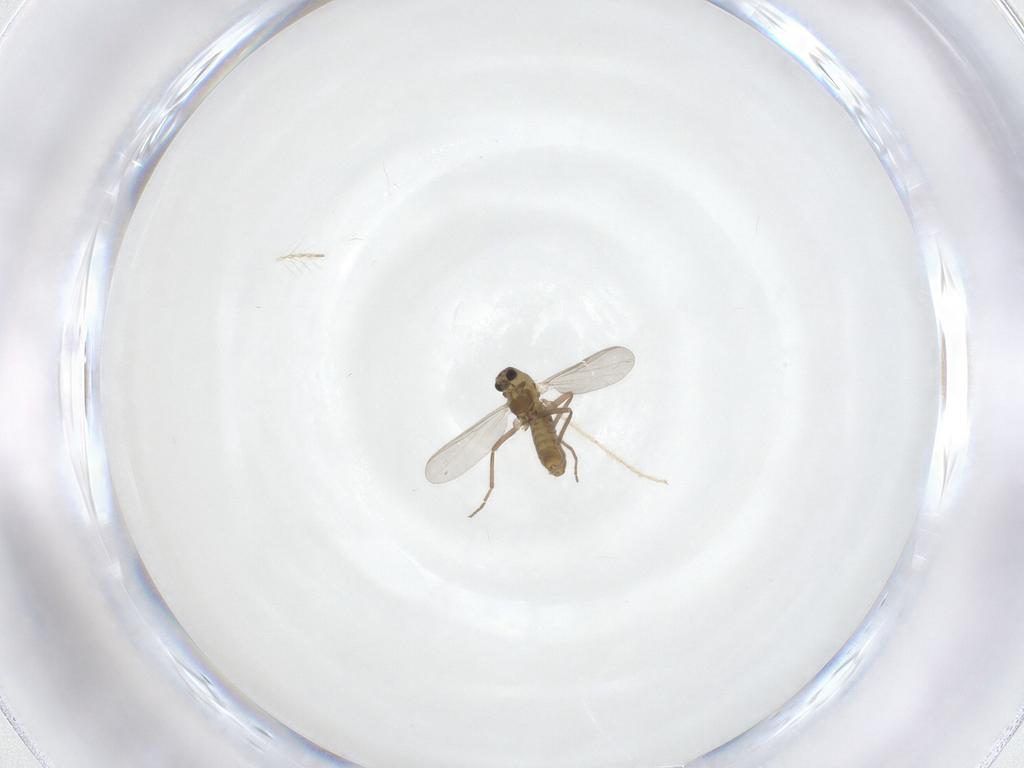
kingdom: Animalia
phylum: Arthropoda
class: Insecta
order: Diptera
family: Chironomidae
